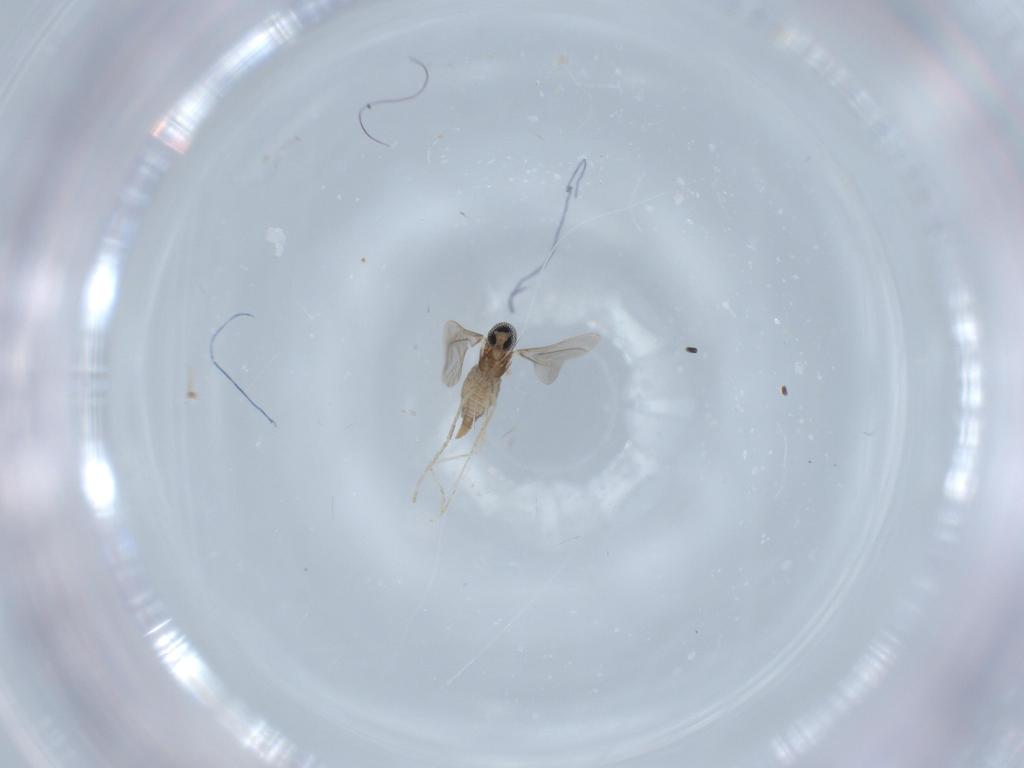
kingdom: Animalia
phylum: Arthropoda
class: Insecta
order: Diptera
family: Cecidomyiidae
